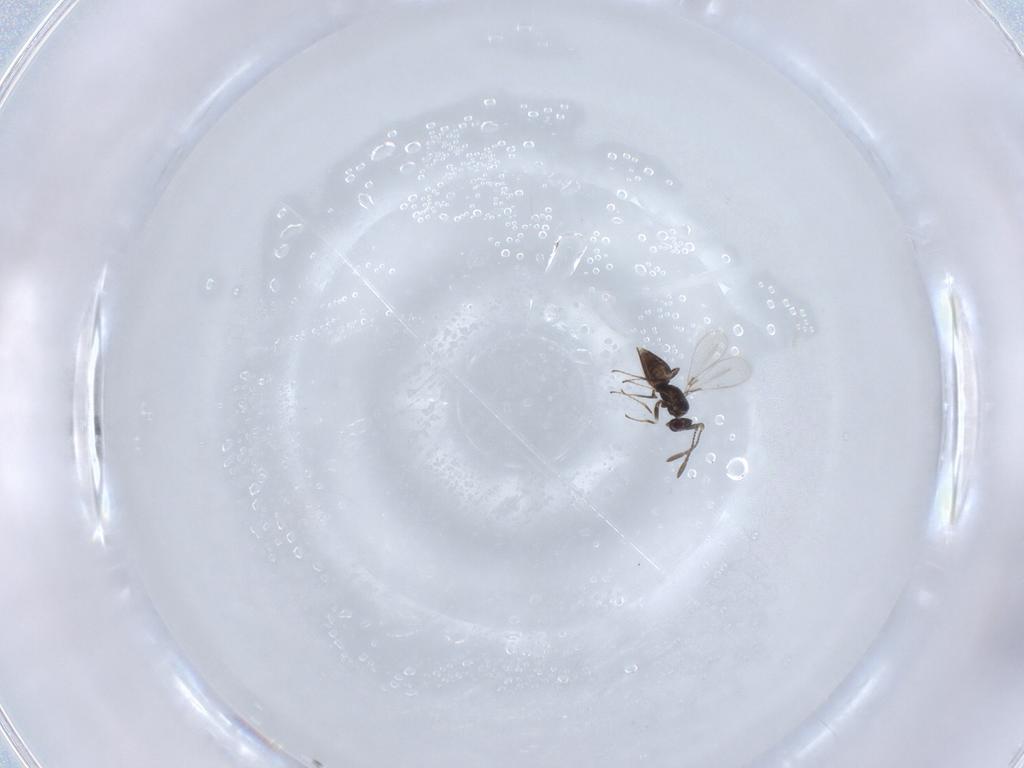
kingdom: Animalia
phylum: Arthropoda
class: Insecta
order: Hymenoptera
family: Mymaridae
